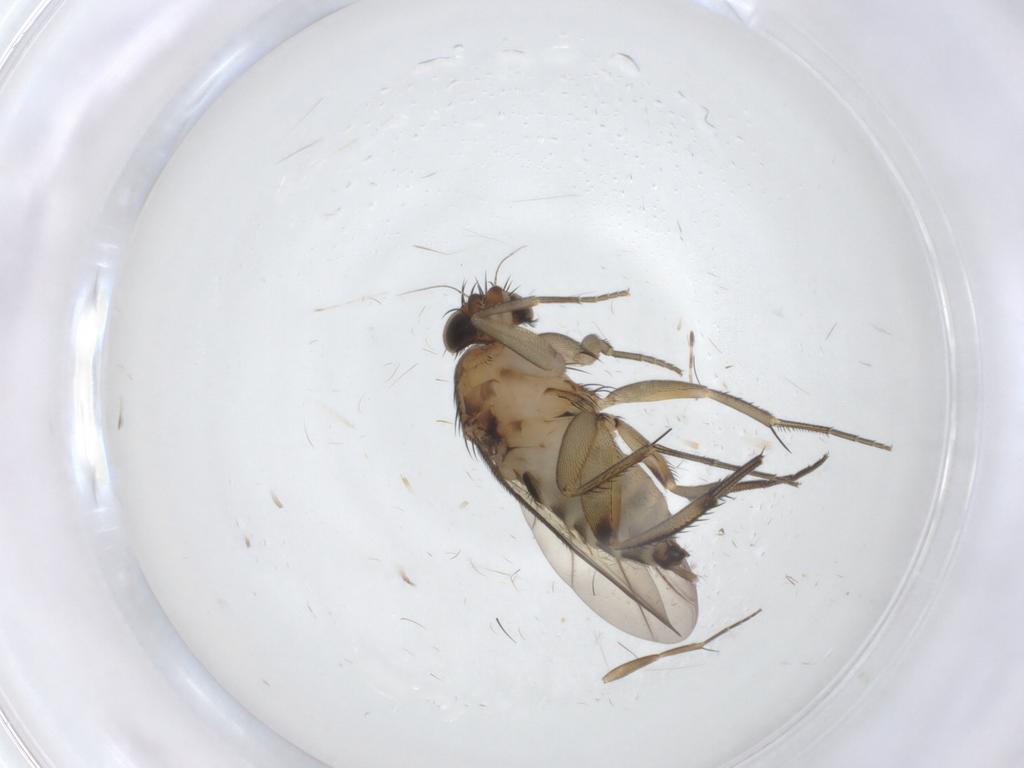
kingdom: Animalia
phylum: Arthropoda
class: Insecta
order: Diptera
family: Phoridae
